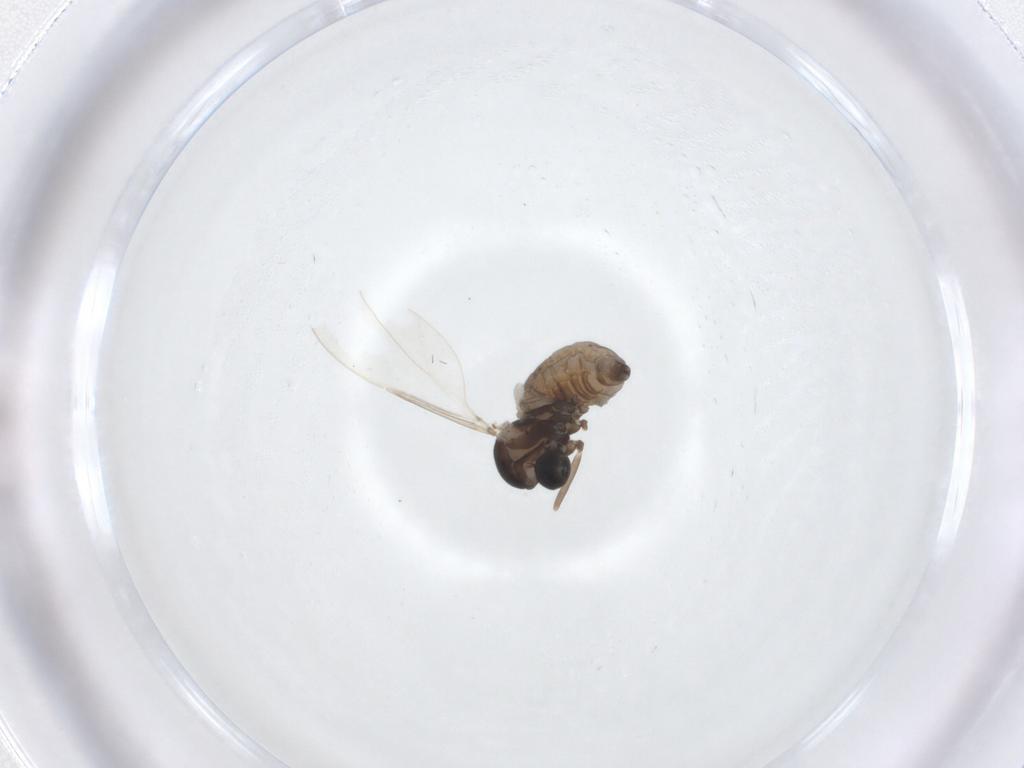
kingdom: Animalia
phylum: Arthropoda
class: Insecta
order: Diptera
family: Cecidomyiidae
